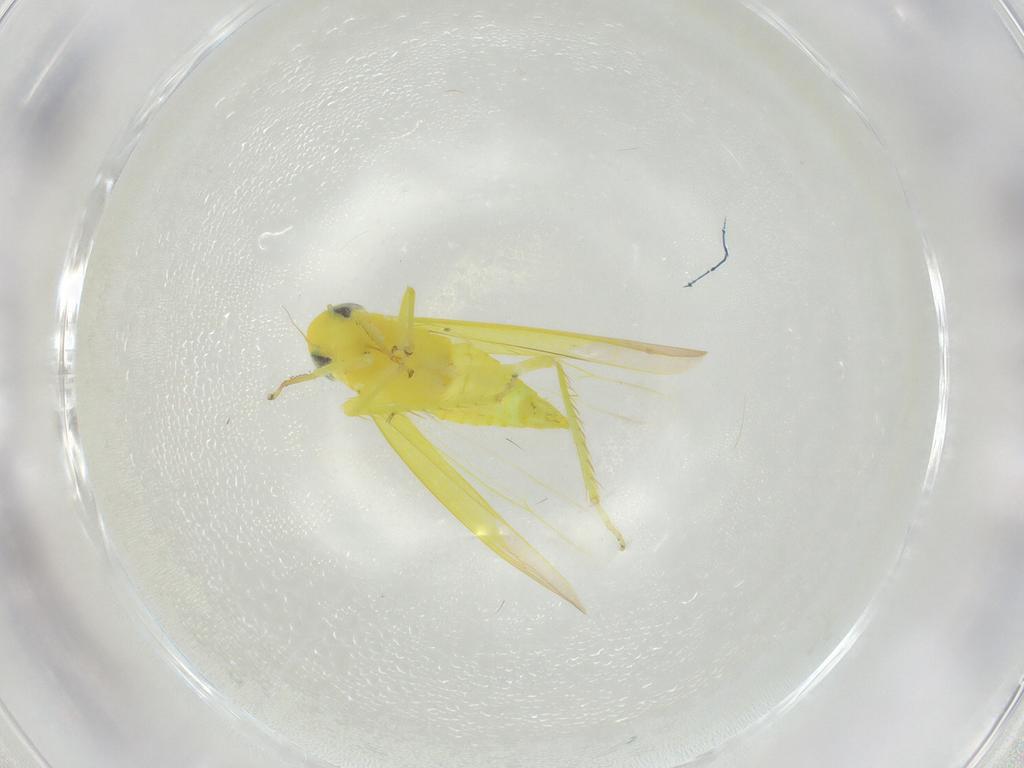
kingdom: Animalia
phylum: Arthropoda
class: Insecta
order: Hemiptera
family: Cicadellidae
